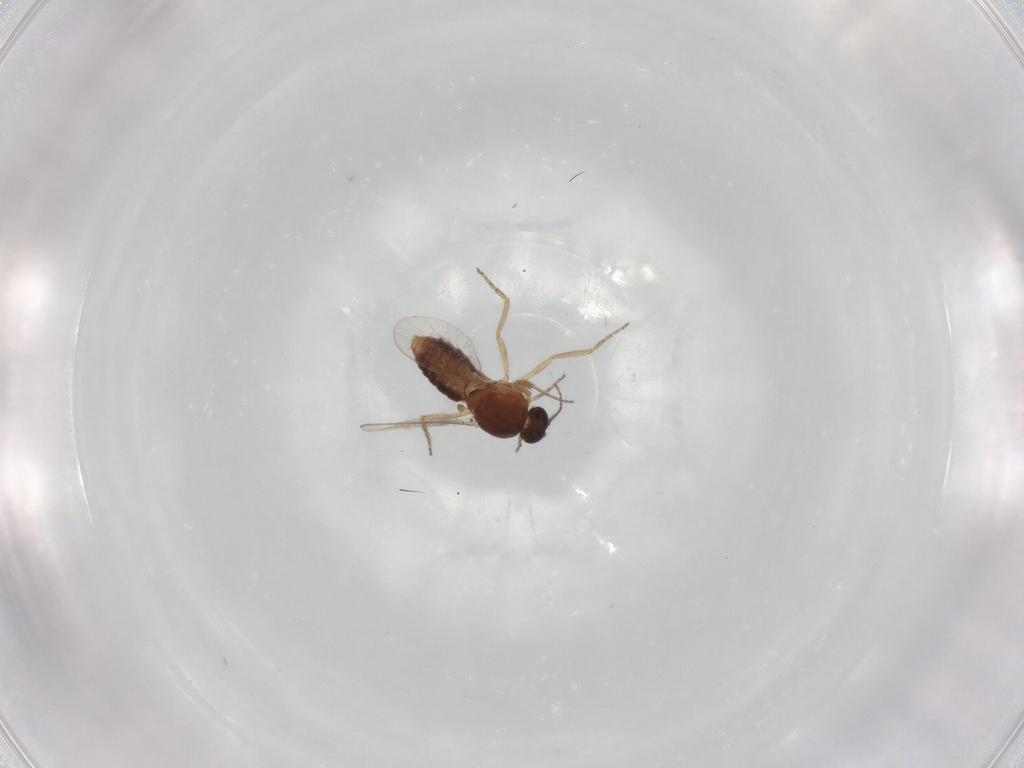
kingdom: Animalia
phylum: Arthropoda
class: Insecta
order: Diptera
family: Ceratopogonidae
